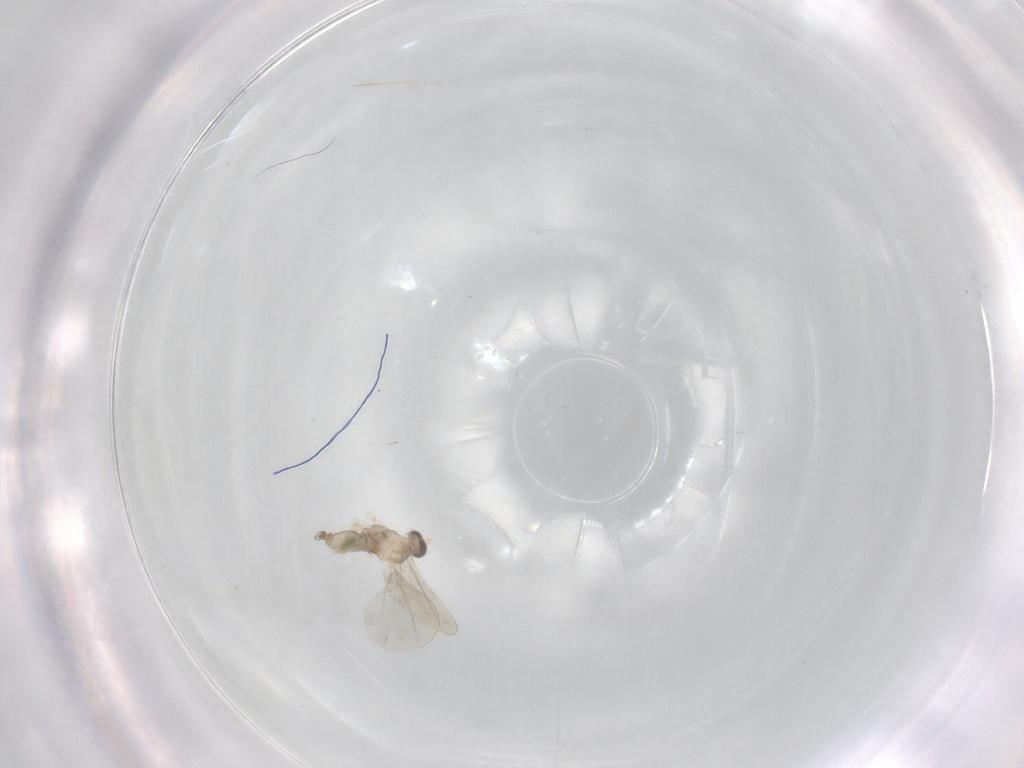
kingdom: Animalia
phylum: Arthropoda
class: Insecta
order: Diptera
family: Cecidomyiidae
